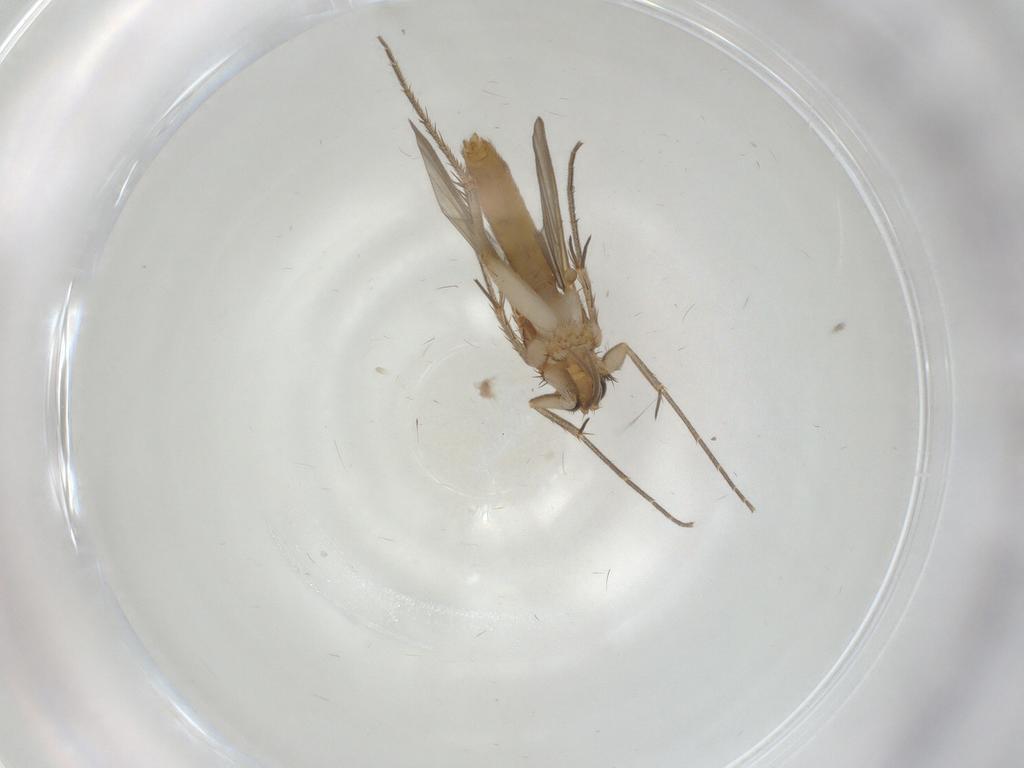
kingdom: Animalia
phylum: Arthropoda
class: Insecta
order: Diptera
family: Mycetophilidae
